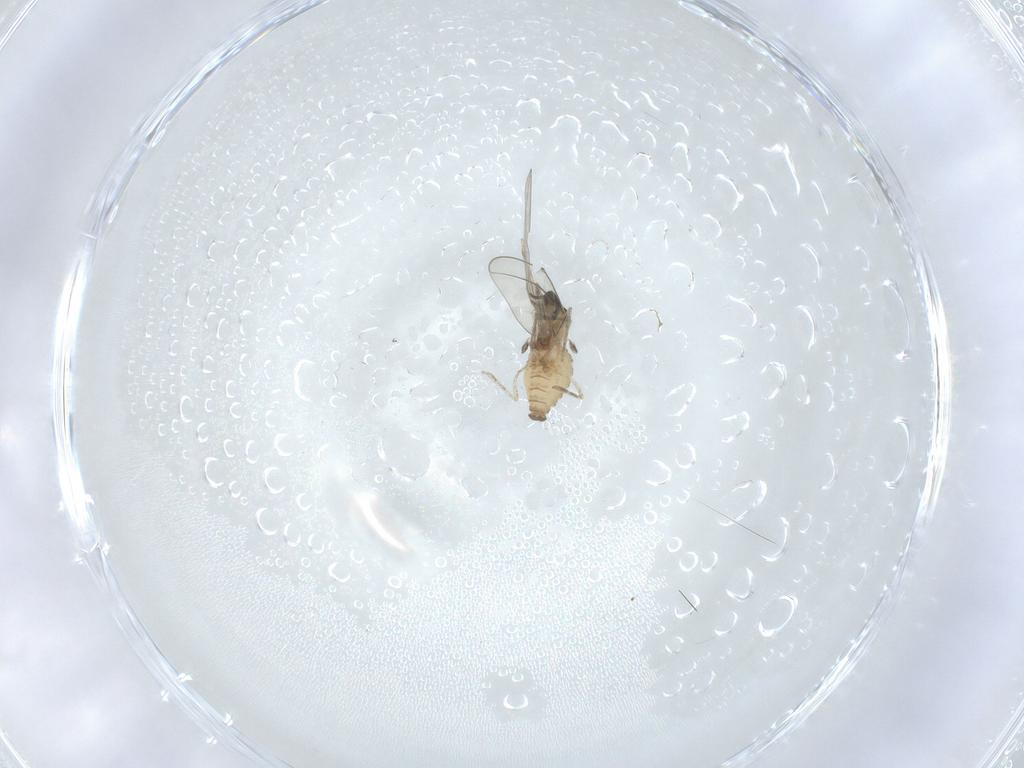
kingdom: Animalia
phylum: Arthropoda
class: Insecta
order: Diptera
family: Cecidomyiidae
